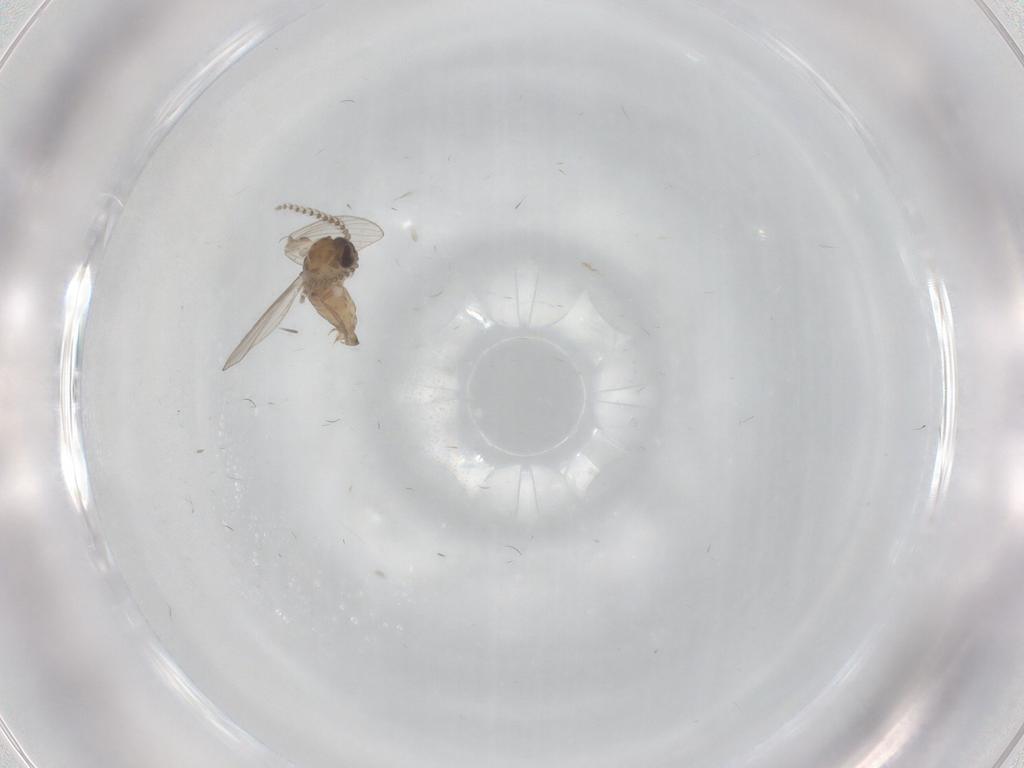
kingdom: Animalia
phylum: Arthropoda
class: Insecta
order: Diptera
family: Psychodidae
